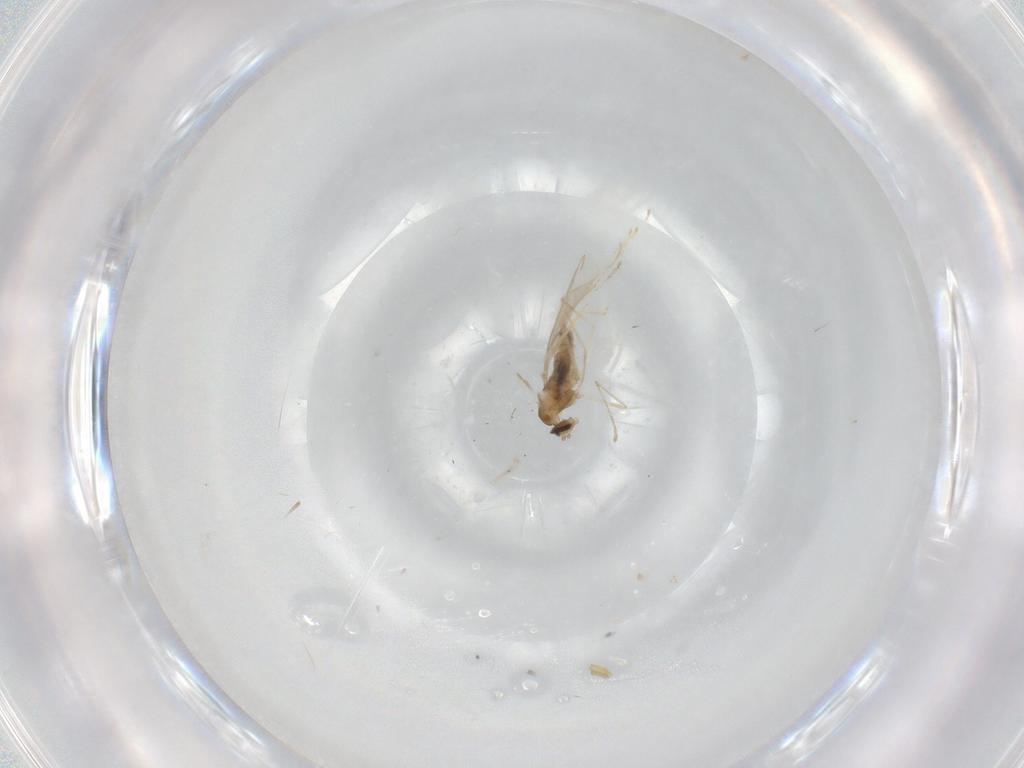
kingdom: Animalia
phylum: Arthropoda
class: Insecta
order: Diptera
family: Cecidomyiidae
